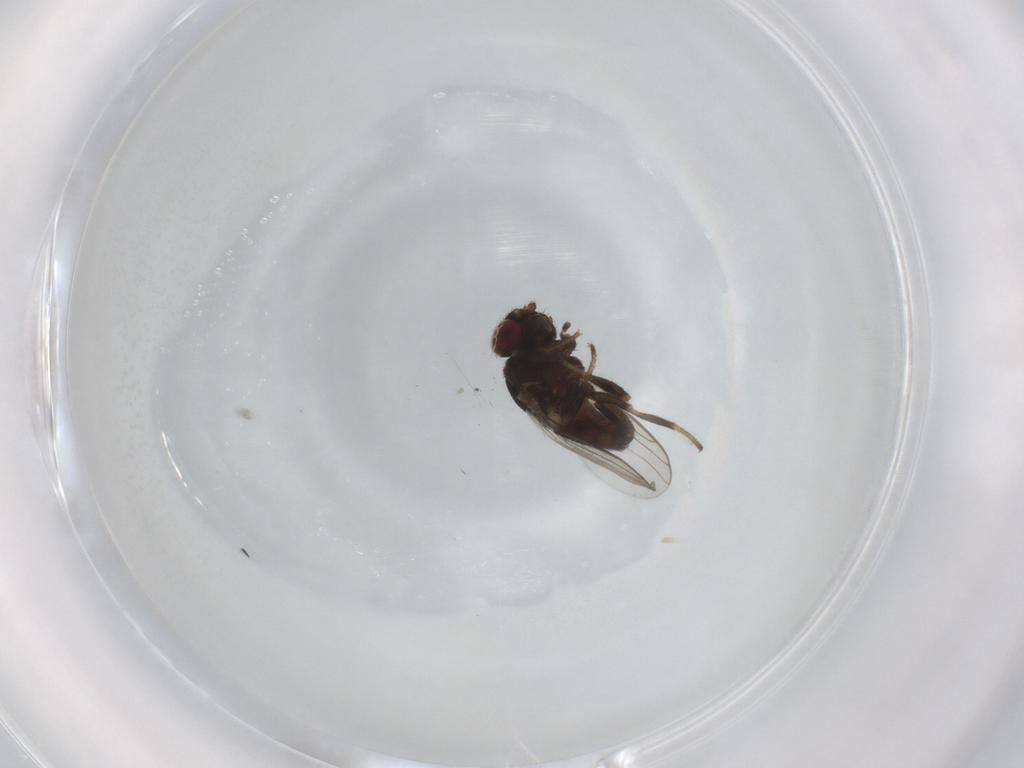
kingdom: Animalia
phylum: Arthropoda
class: Insecta
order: Diptera
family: Chloropidae
